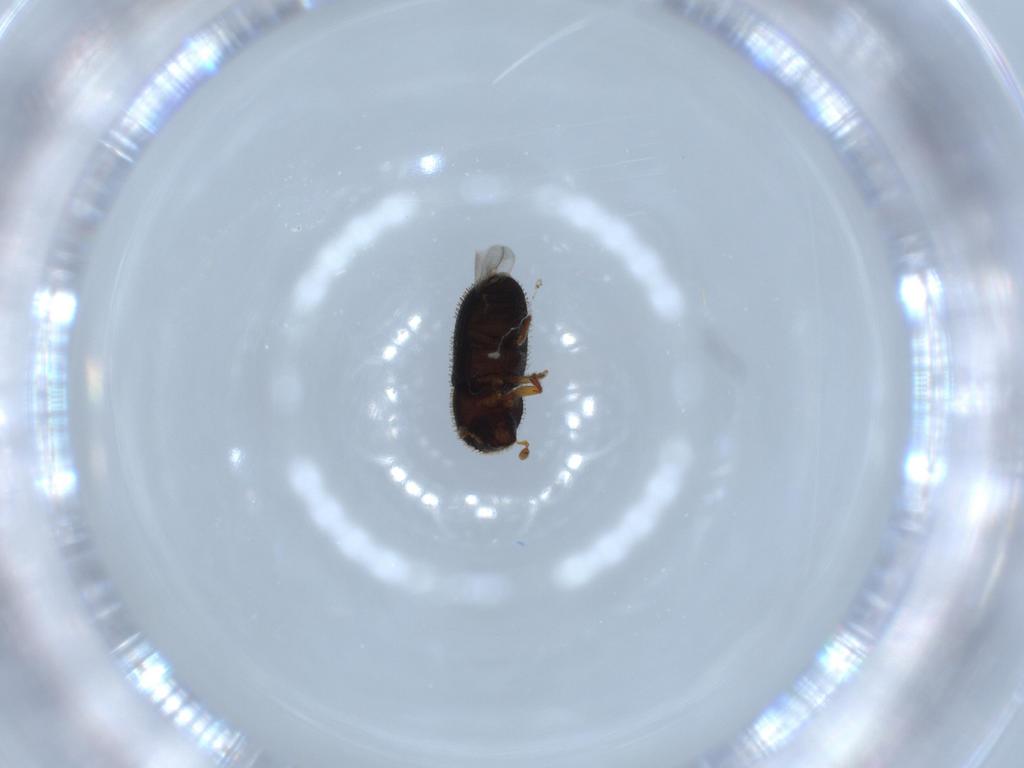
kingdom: Animalia
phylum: Arthropoda
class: Insecta
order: Coleoptera
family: Curculionidae
